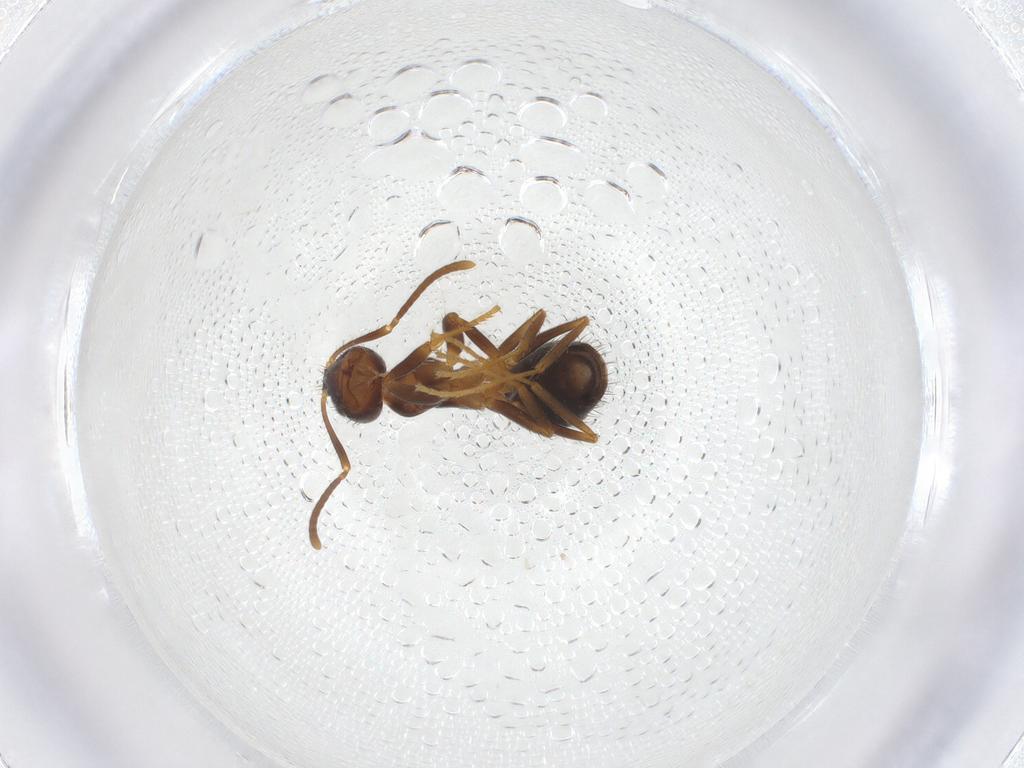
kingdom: Animalia
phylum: Arthropoda
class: Insecta
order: Hymenoptera
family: Formicidae
